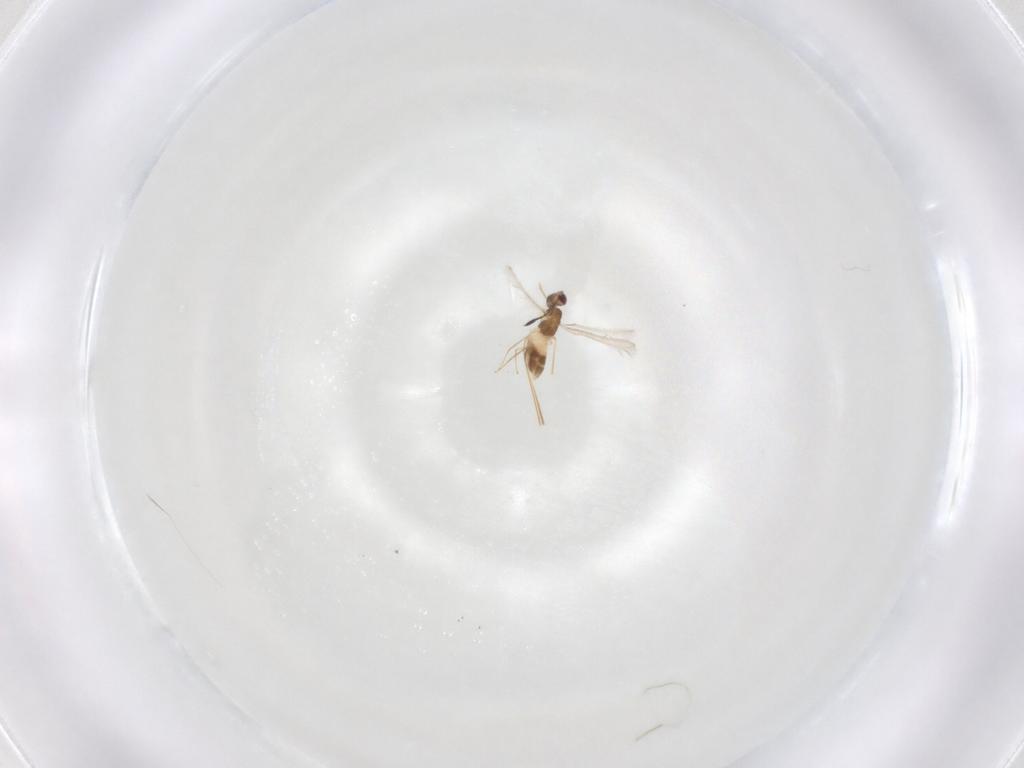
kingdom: Animalia
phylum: Arthropoda
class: Insecta
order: Hymenoptera
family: Mymaridae
